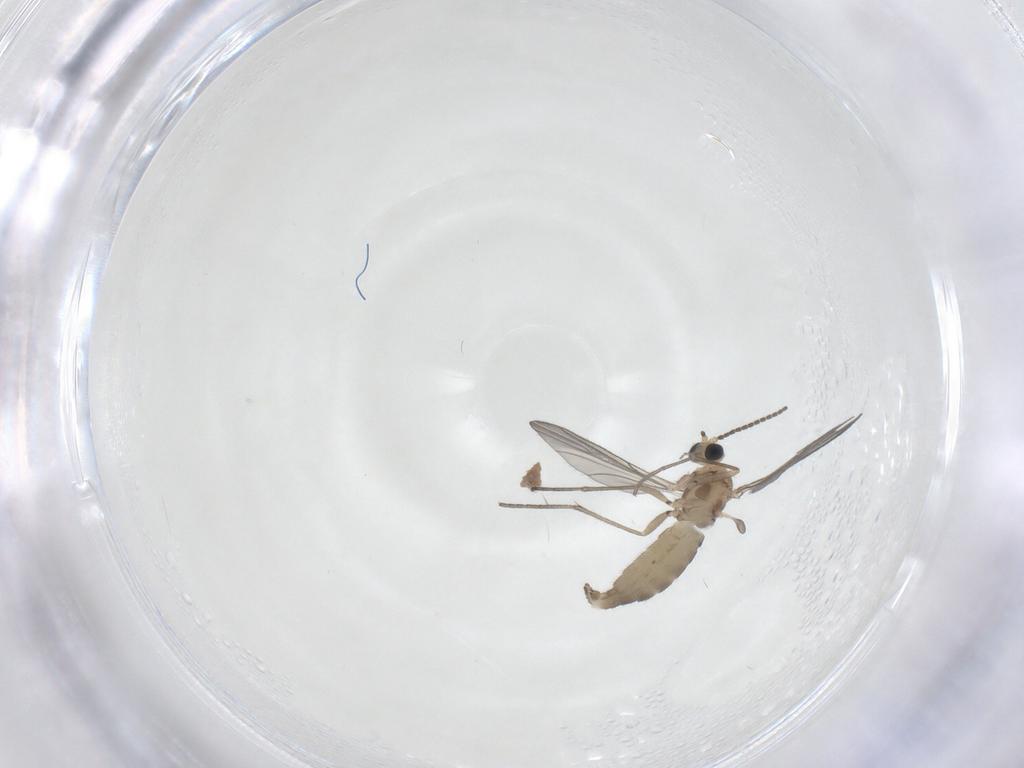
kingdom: Animalia
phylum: Arthropoda
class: Insecta
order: Diptera
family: Sciaridae
